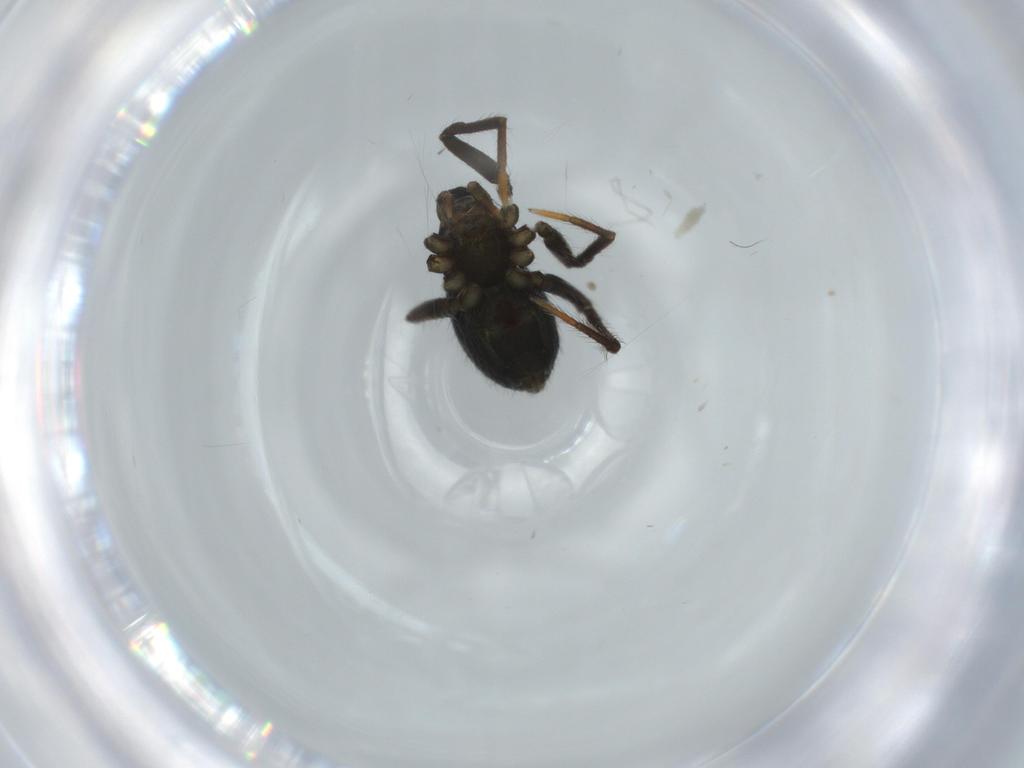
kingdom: Animalia
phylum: Arthropoda
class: Arachnida
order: Araneae
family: Theridiidae
